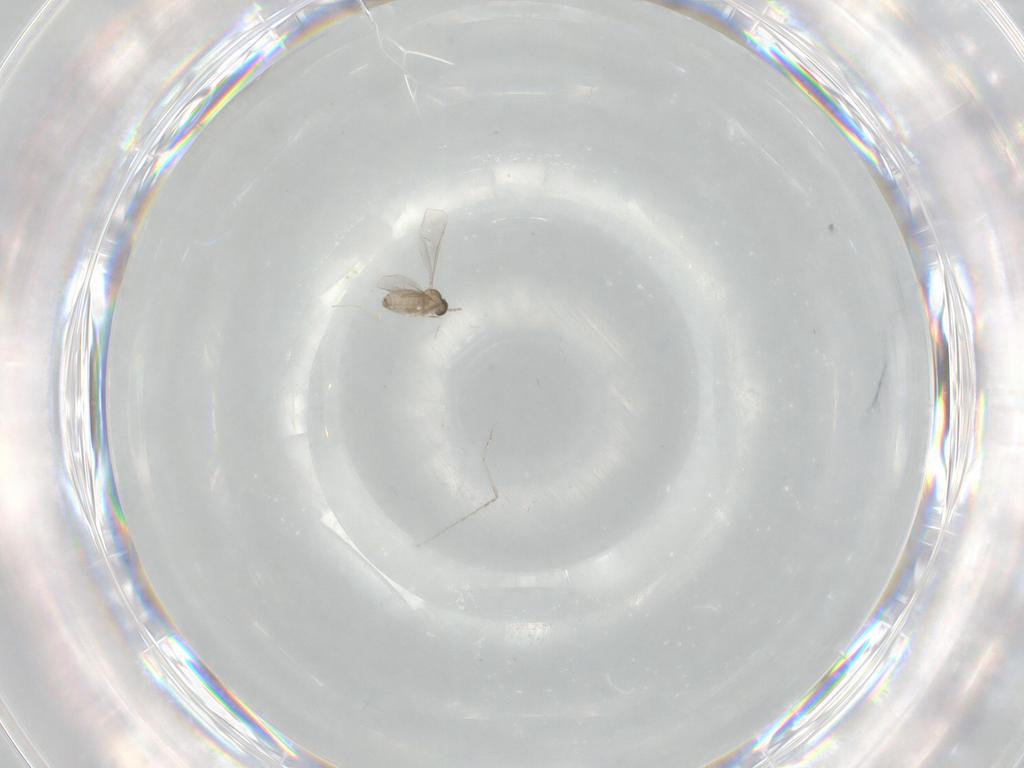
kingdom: Animalia
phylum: Arthropoda
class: Insecta
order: Diptera
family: Cecidomyiidae
